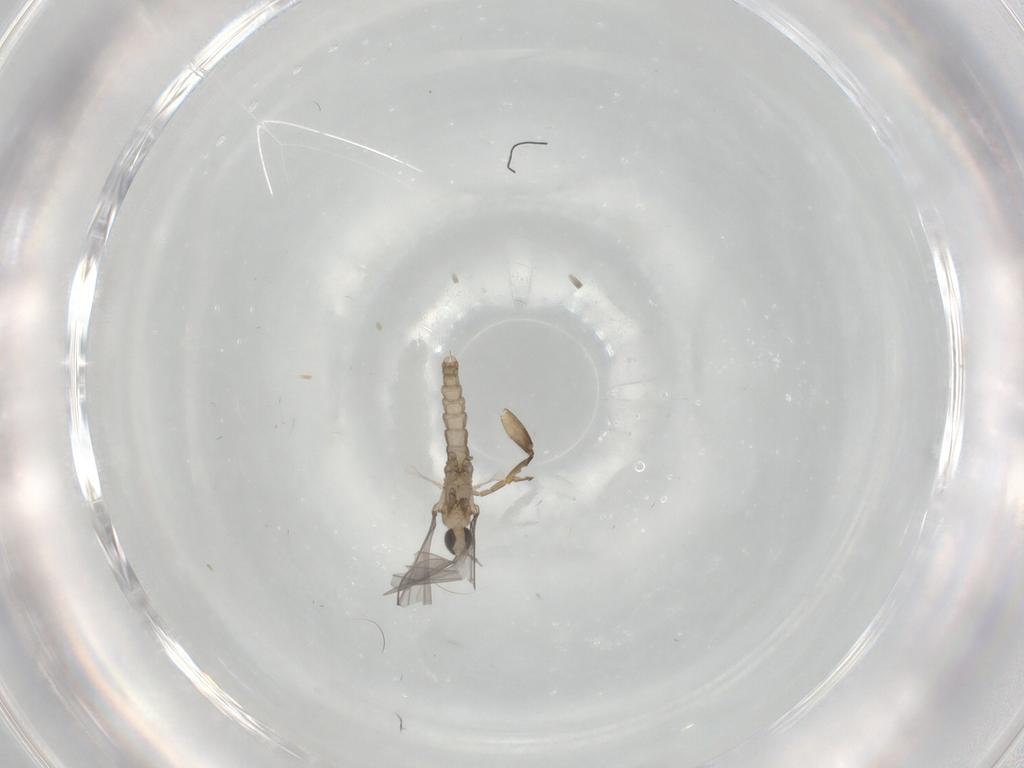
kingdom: Animalia
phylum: Arthropoda
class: Insecta
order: Diptera
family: Phoridae
